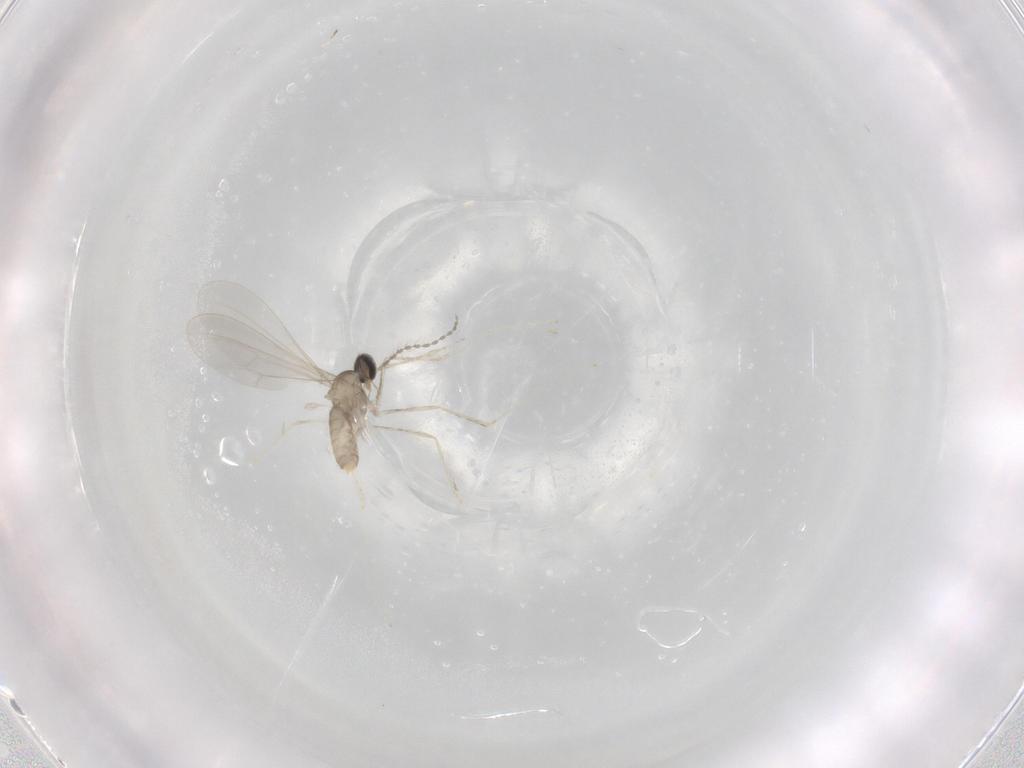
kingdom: Animalia
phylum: Arthropoda
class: Insecta
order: Diptera
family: Cecidomyiidae
